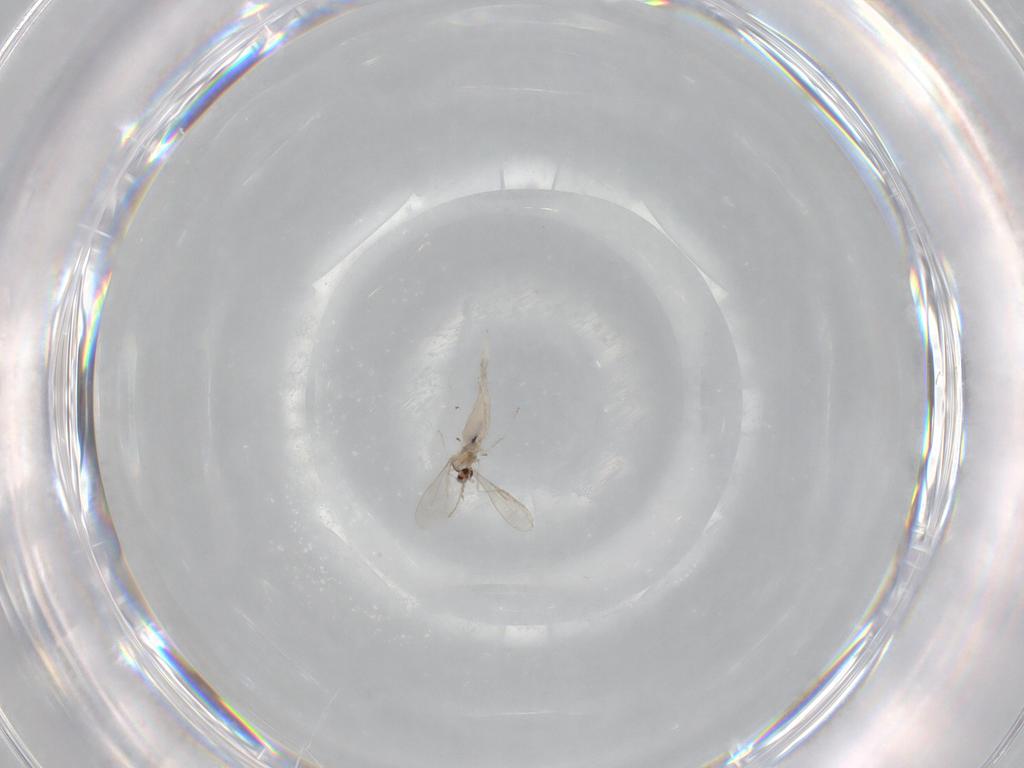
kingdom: Animalia
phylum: Arthropoda
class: Insecta
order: Diptera
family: Cecidomyiidae
